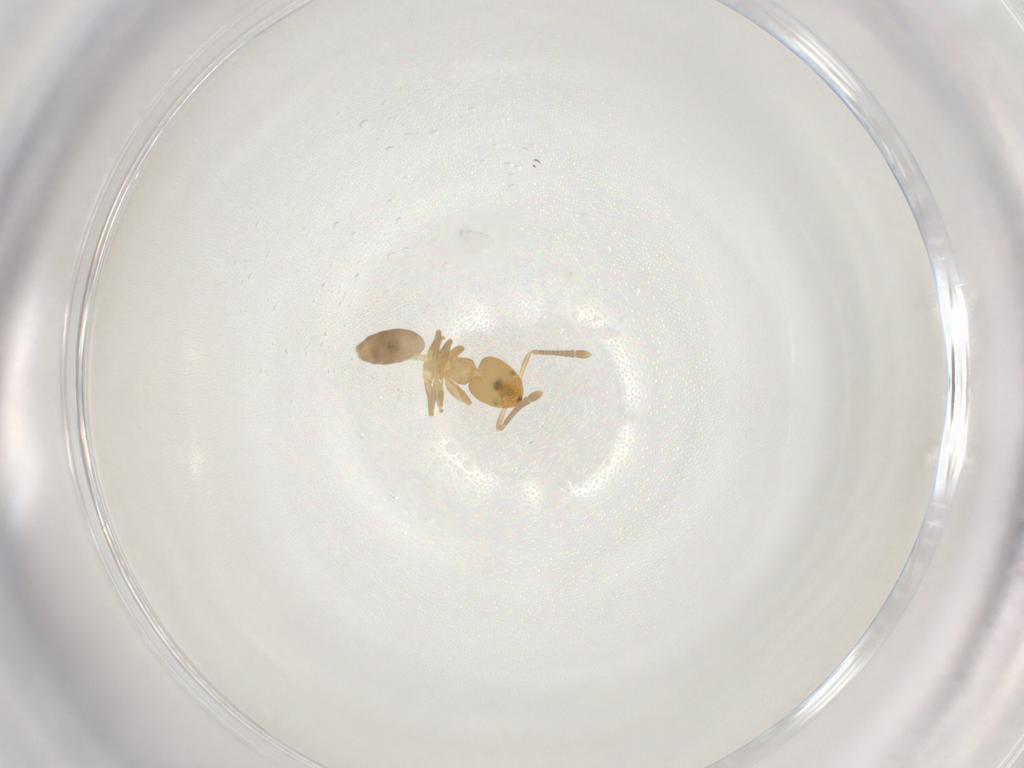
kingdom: Animalia
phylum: Arthropoda
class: Insecta
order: Hymenoptera
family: Formicidae
